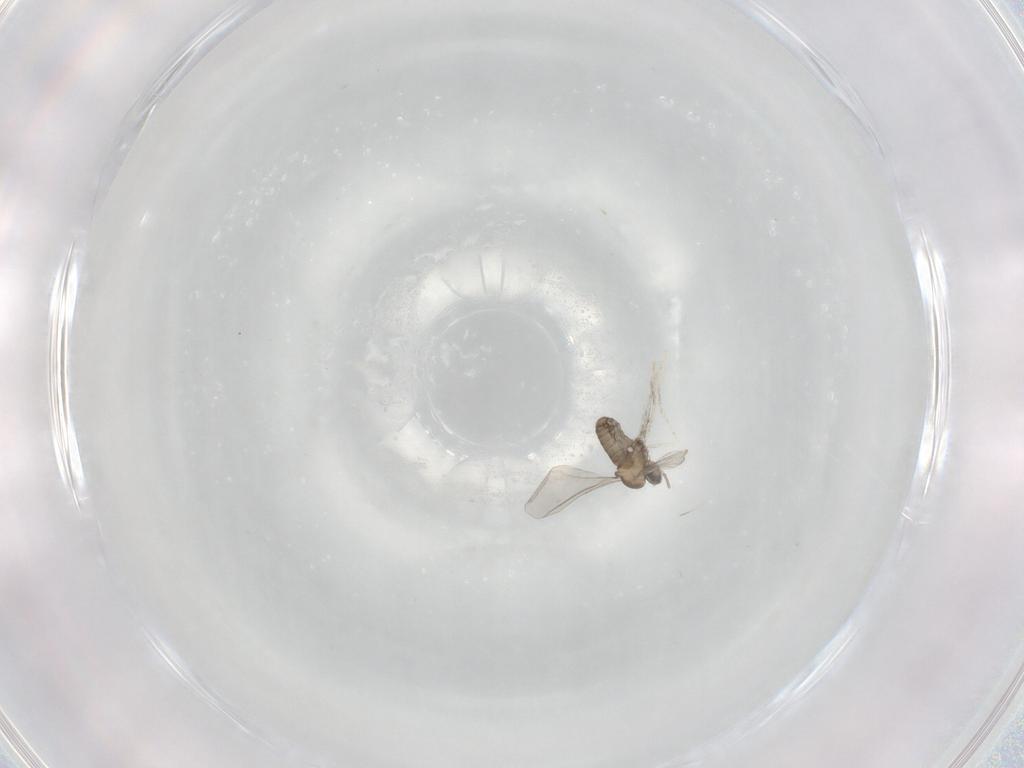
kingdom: Animalia
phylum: Arthropoda
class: Insecta
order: Diptera
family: Cecidomyiidae
